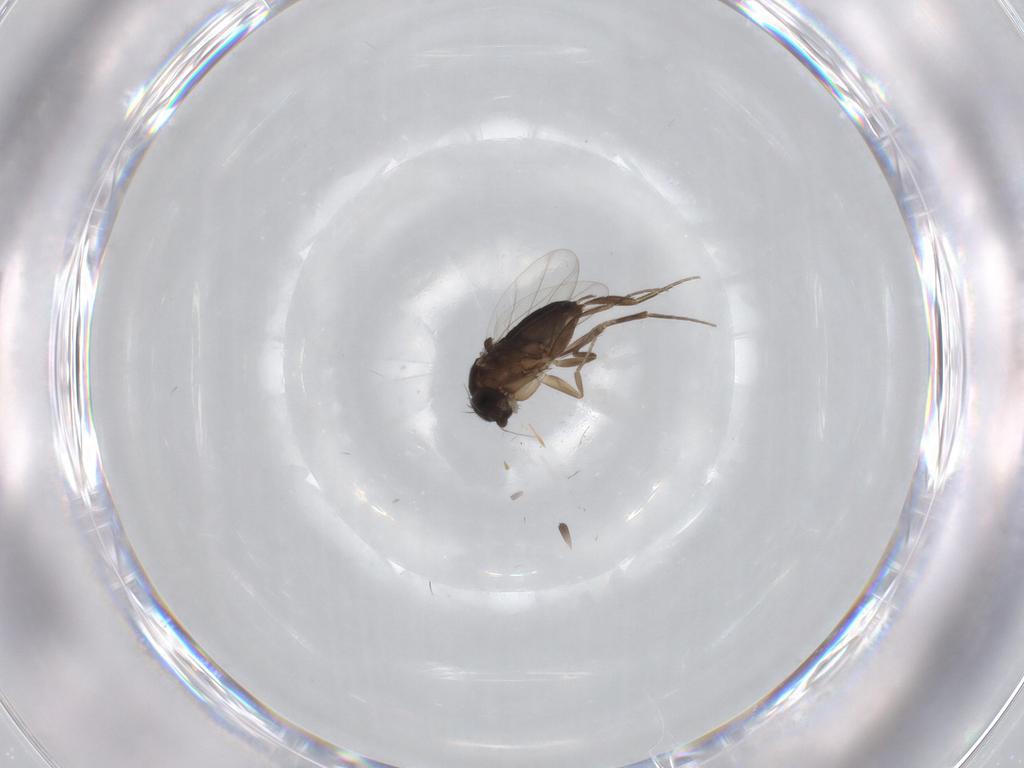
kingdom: Animalia
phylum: Arthropoda
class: Insecta
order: Diptera
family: Phoridae
